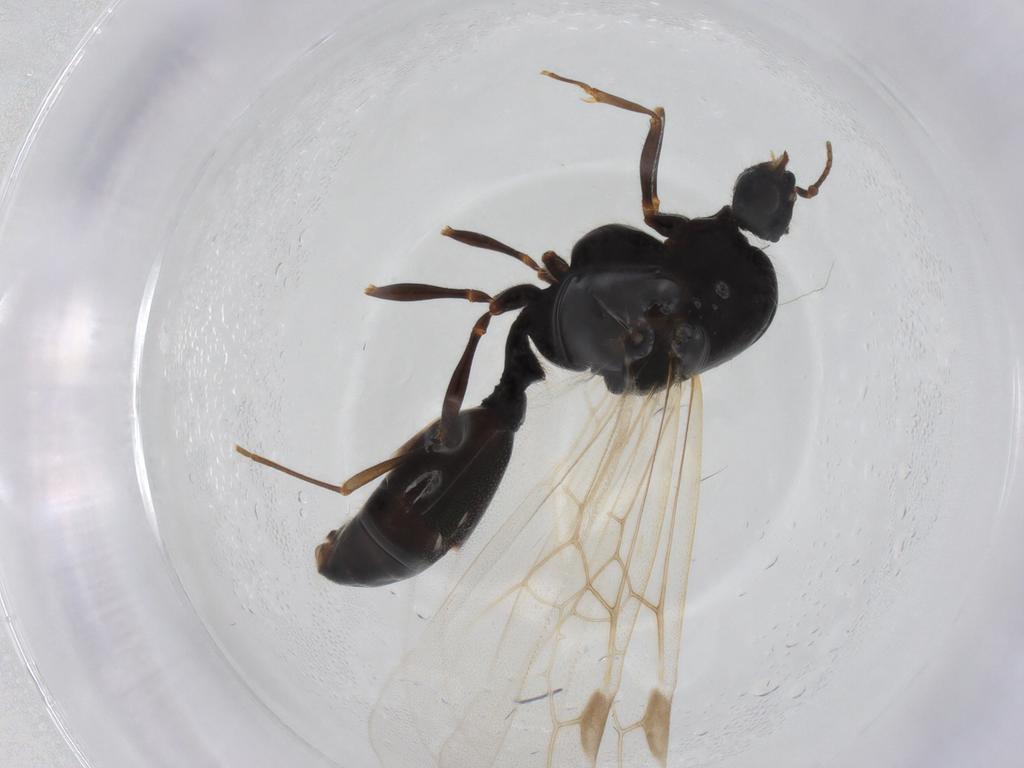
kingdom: Animalia
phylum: Arthropoda
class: Insecta
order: Hymenoptera
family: Formicidae
